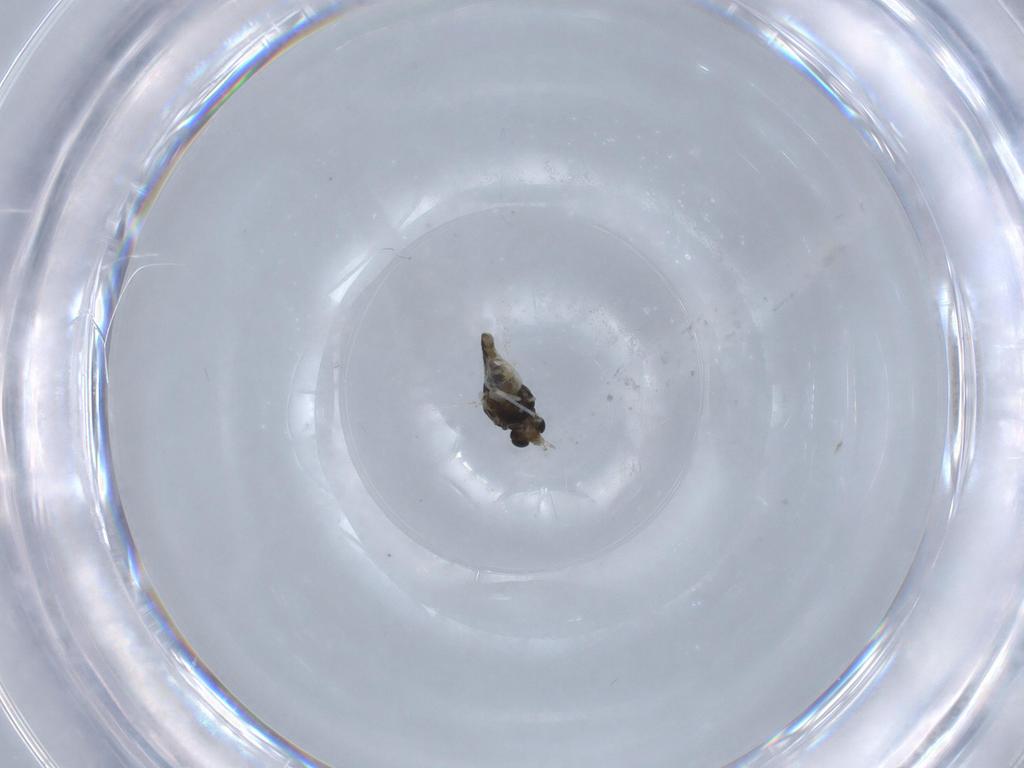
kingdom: Animalia
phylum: Arthropoda
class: Insecta
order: Diptera
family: Chironomidae
